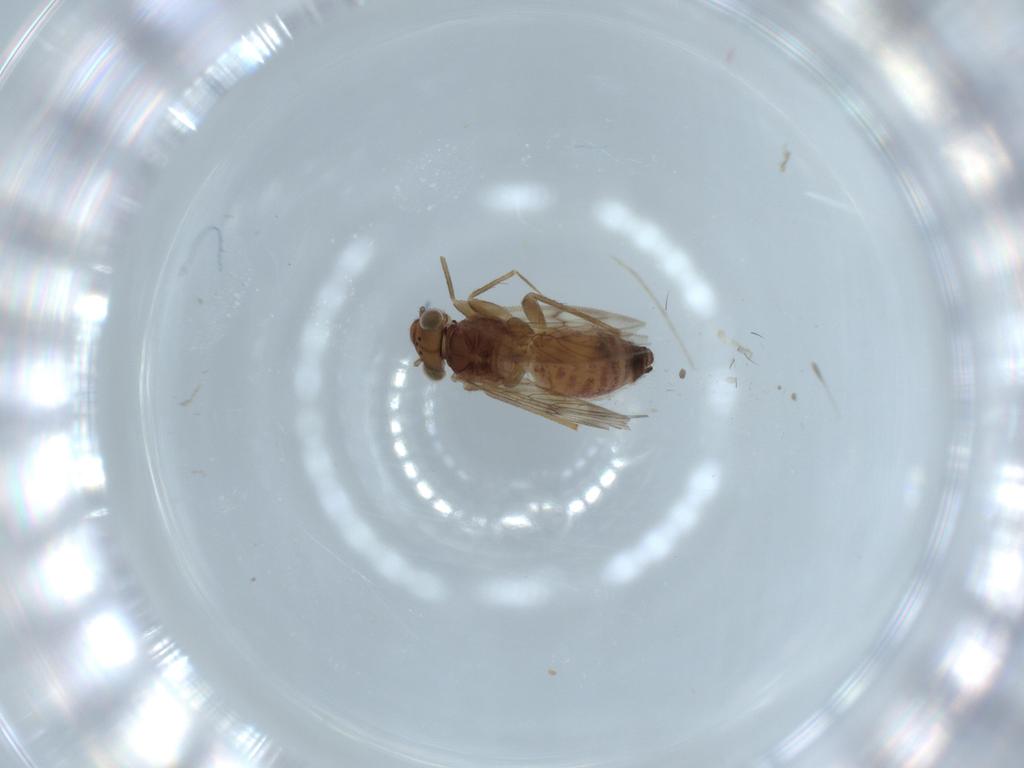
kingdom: Animalia
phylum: Arthropoda
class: Insecta
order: Psocodea
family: Lepidopsocidae
